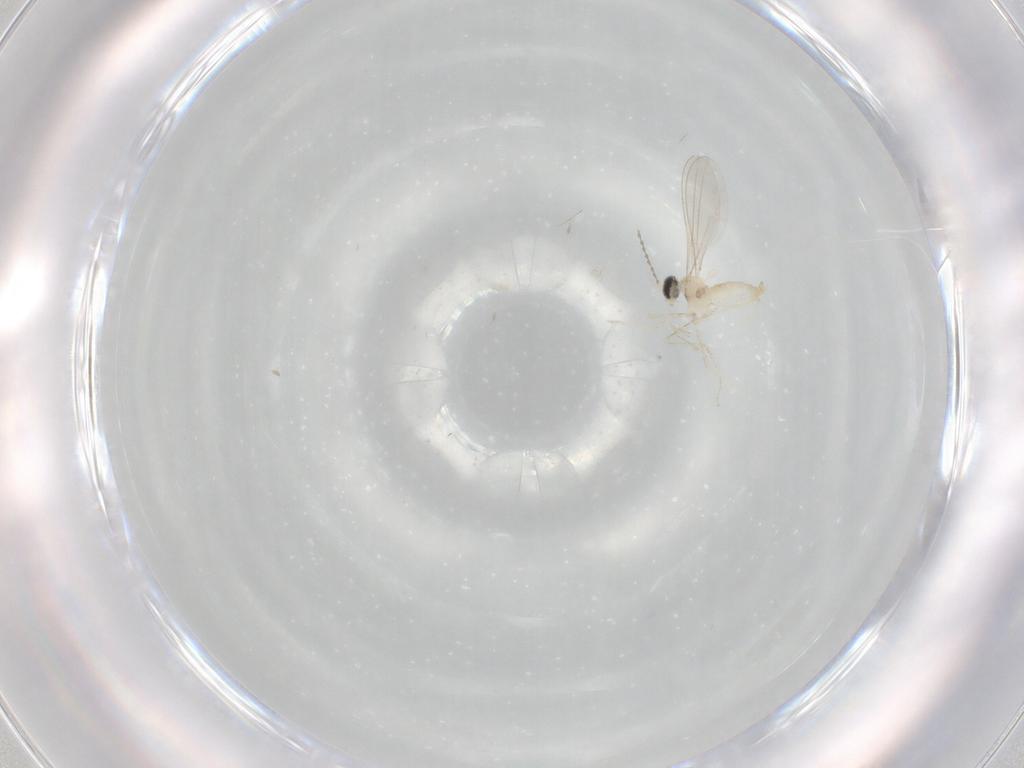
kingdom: Animalia
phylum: Arthropoda
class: Insecta
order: Diptera
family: Cecidomyiidae
